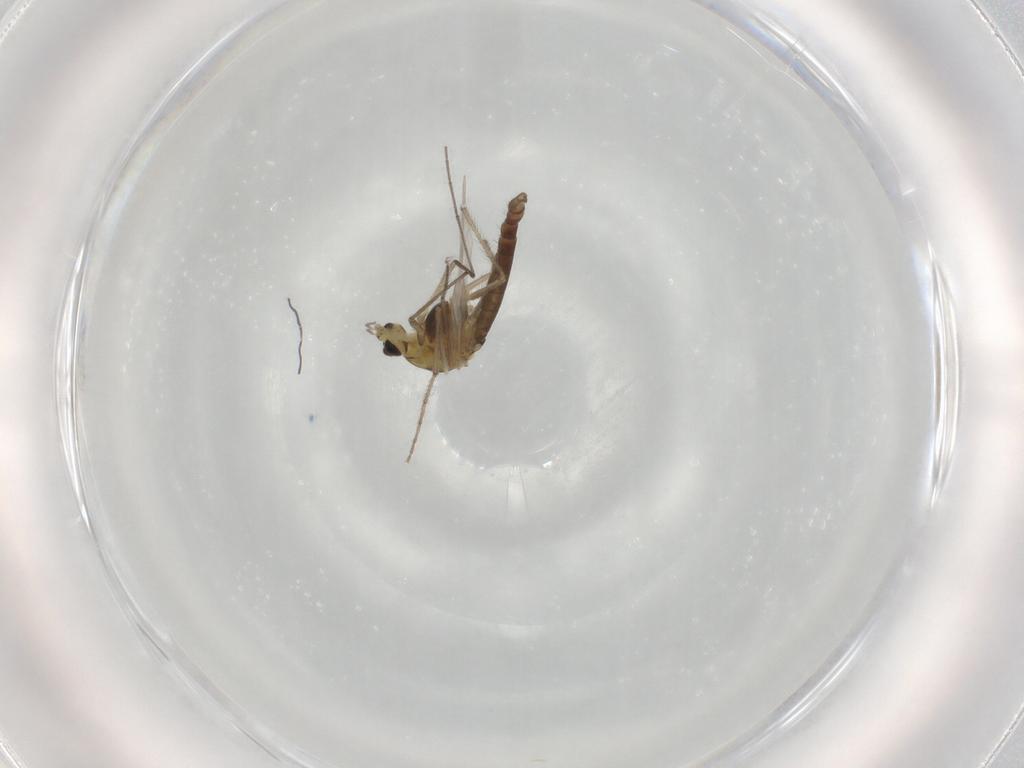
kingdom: Animalia
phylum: Arthropoda
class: Insecta
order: Diptera
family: Chironomidae
